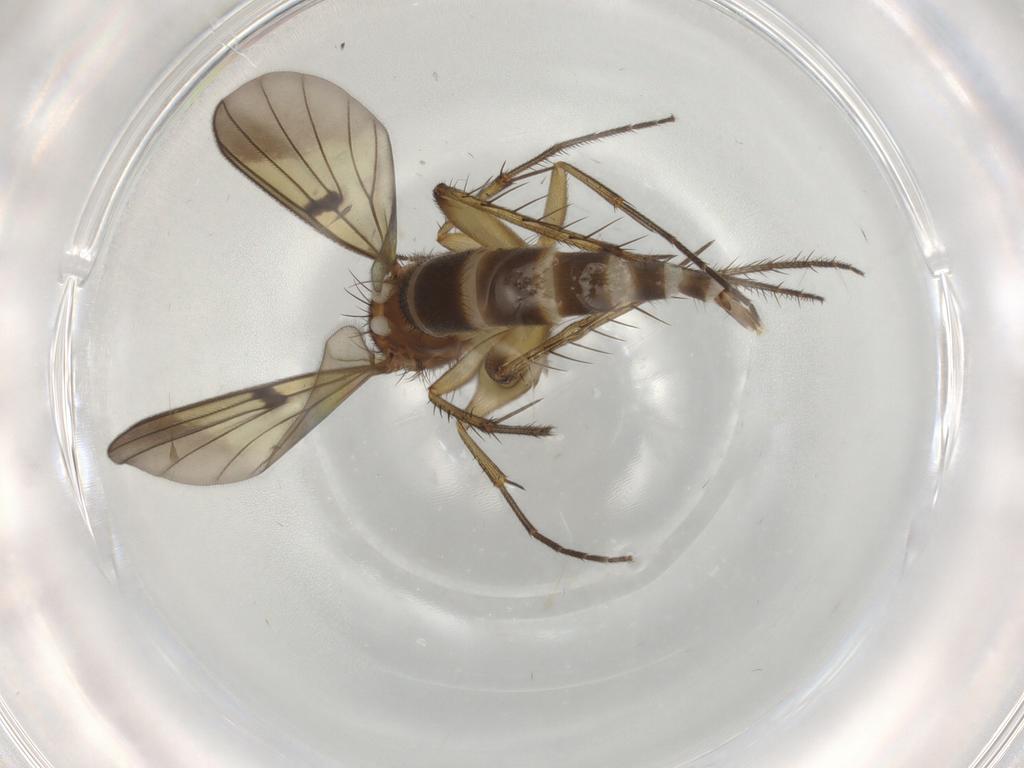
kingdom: Animalia
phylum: Arthropoda
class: Insecta
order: Diptera
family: Mycetophilidae
